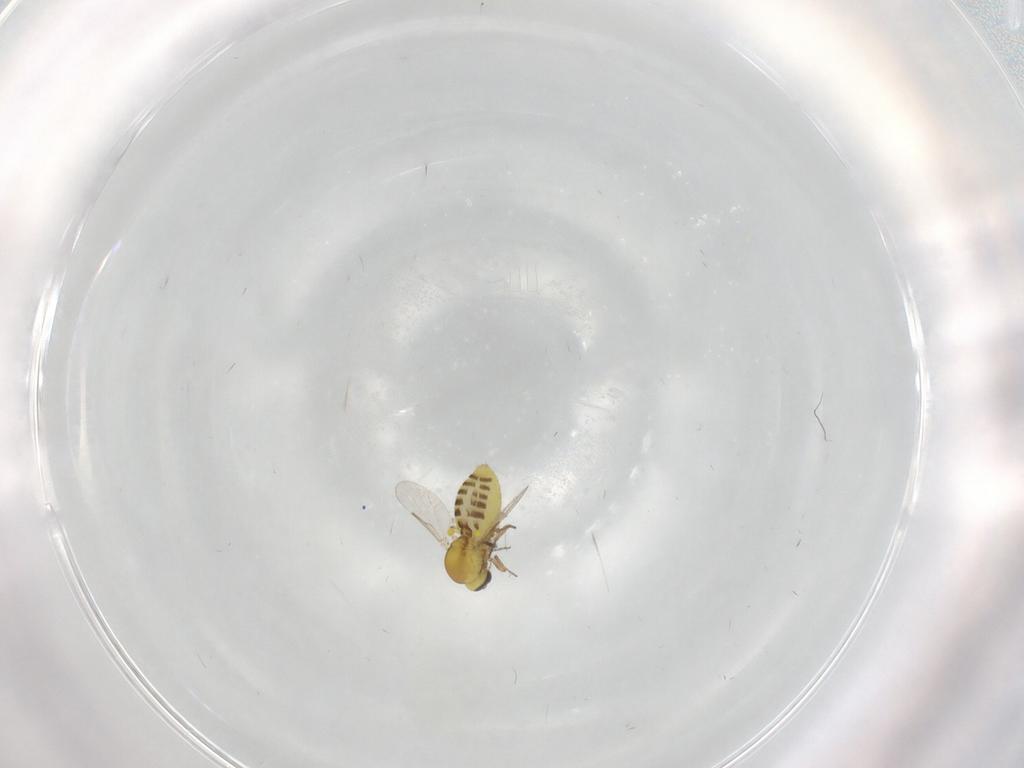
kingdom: Animalia
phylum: Arthropoda
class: Insecta
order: Diptera
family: Ceratopogonidae
